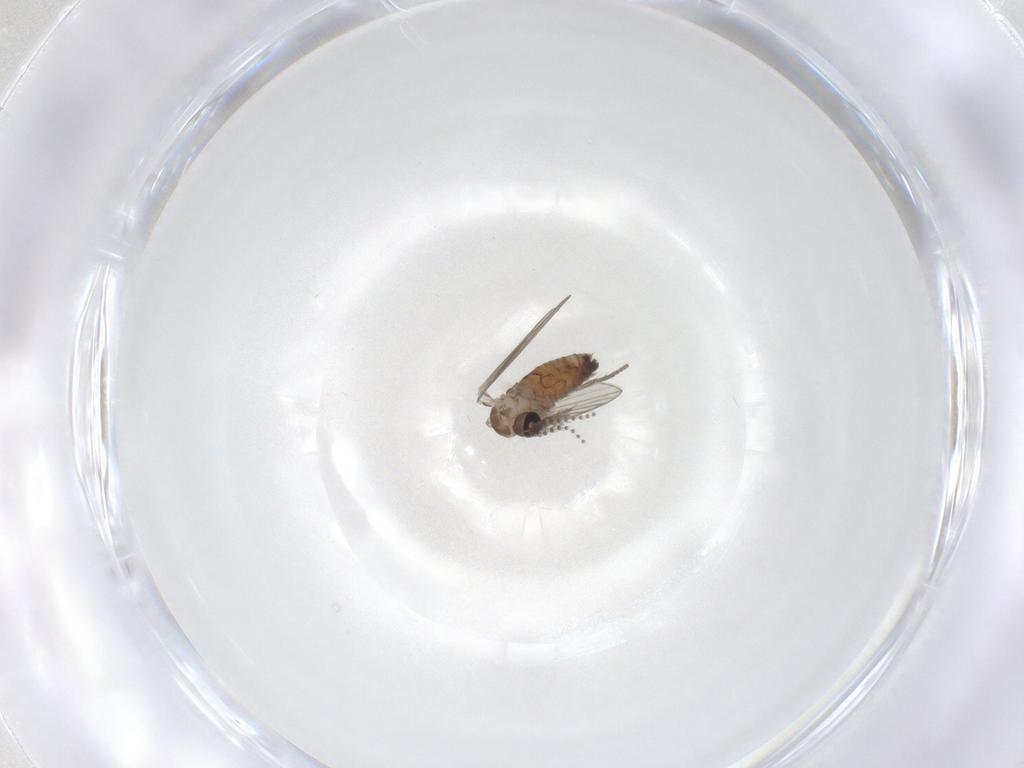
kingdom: Animalia
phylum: Arthropoda
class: Insecta
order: Diptera
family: Psychodidae
